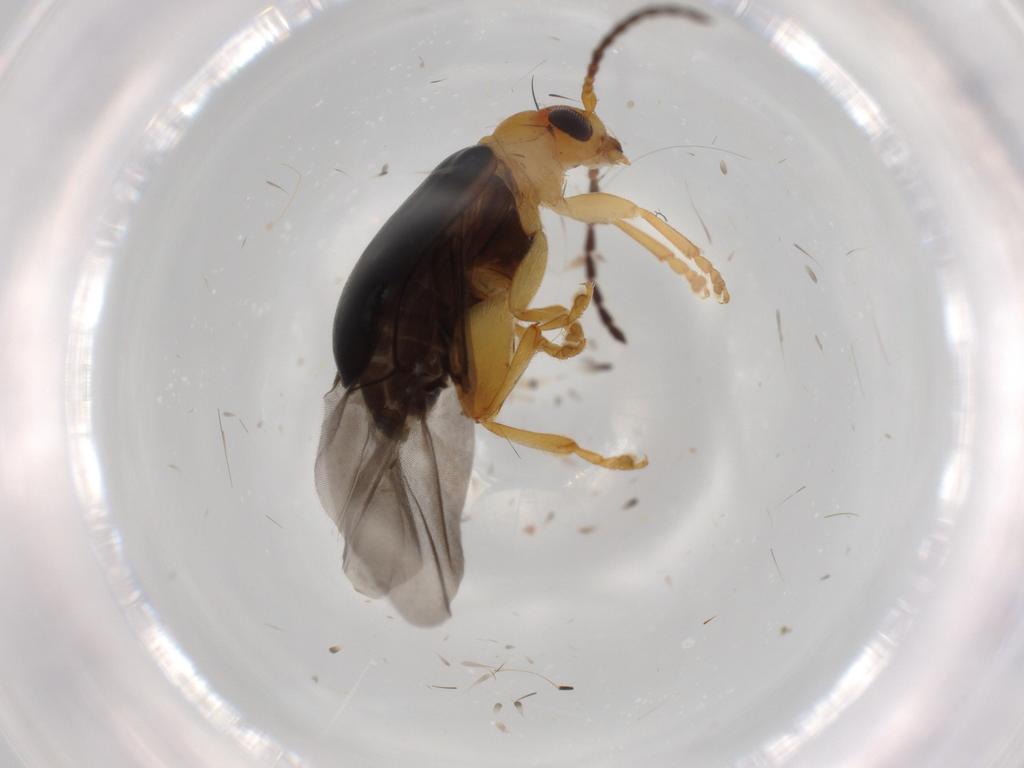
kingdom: Animalia
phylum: Arthropoda
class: Insecta
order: Coleoptera
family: Chrysomelidae
